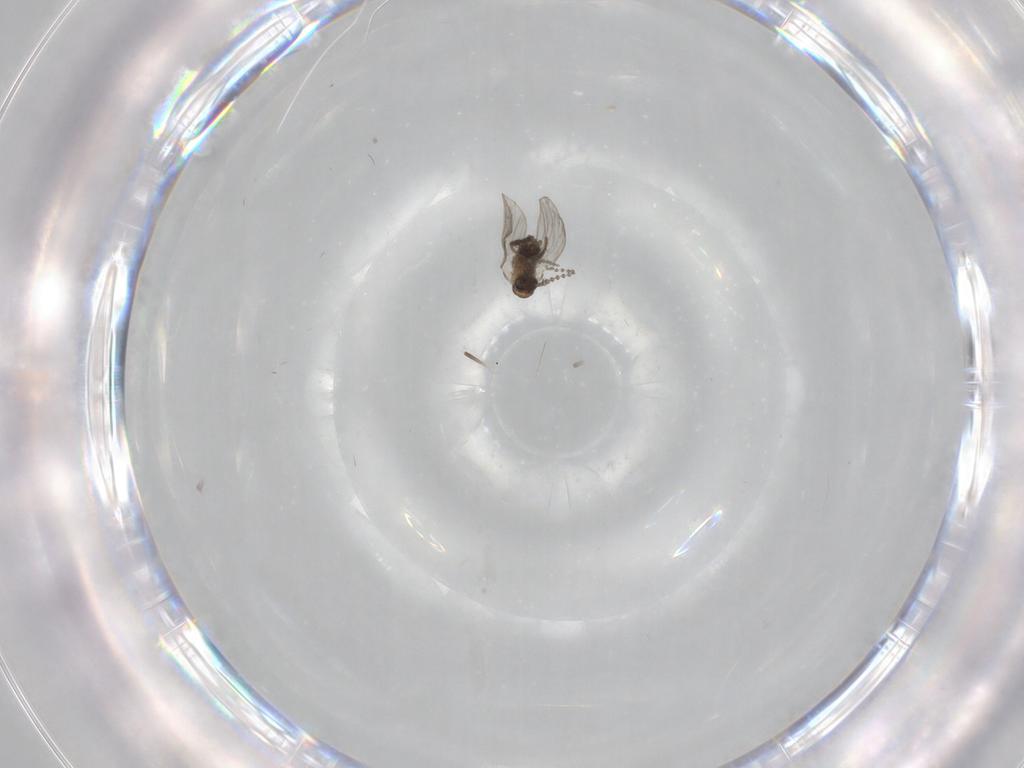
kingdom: Animalia
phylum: Arthropoda
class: Insecta
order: Diptera
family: Psychodidae
